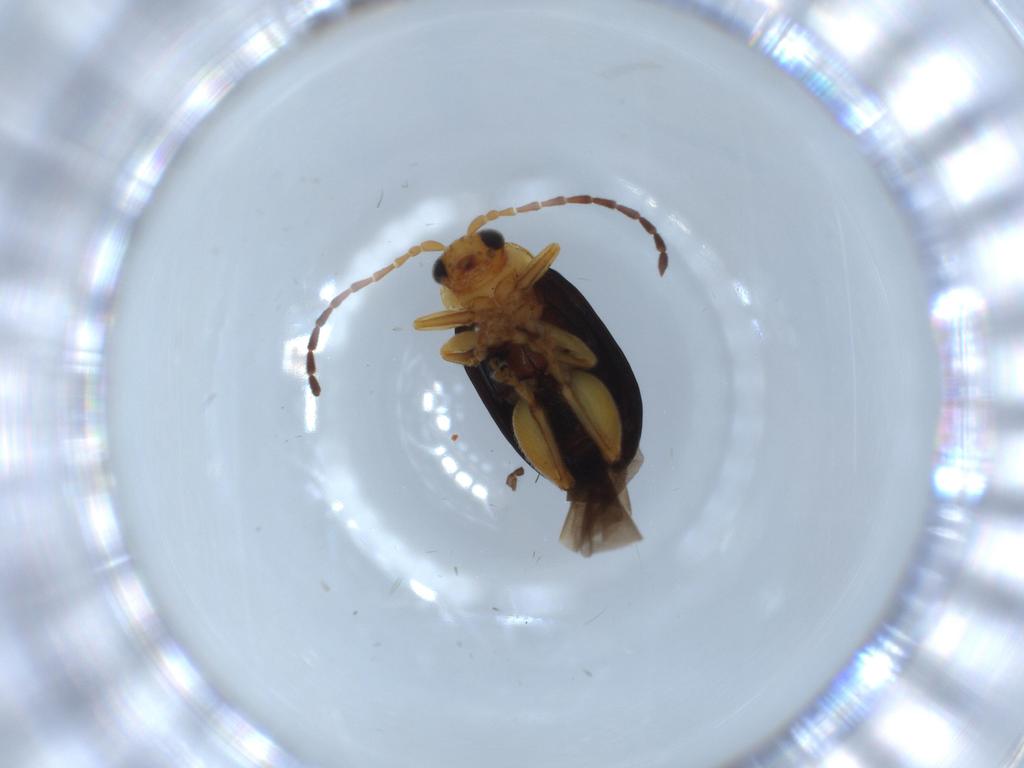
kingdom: Animalia
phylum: Arthropoda
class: Insecta
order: Coleoptera
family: Chrysomelidae
